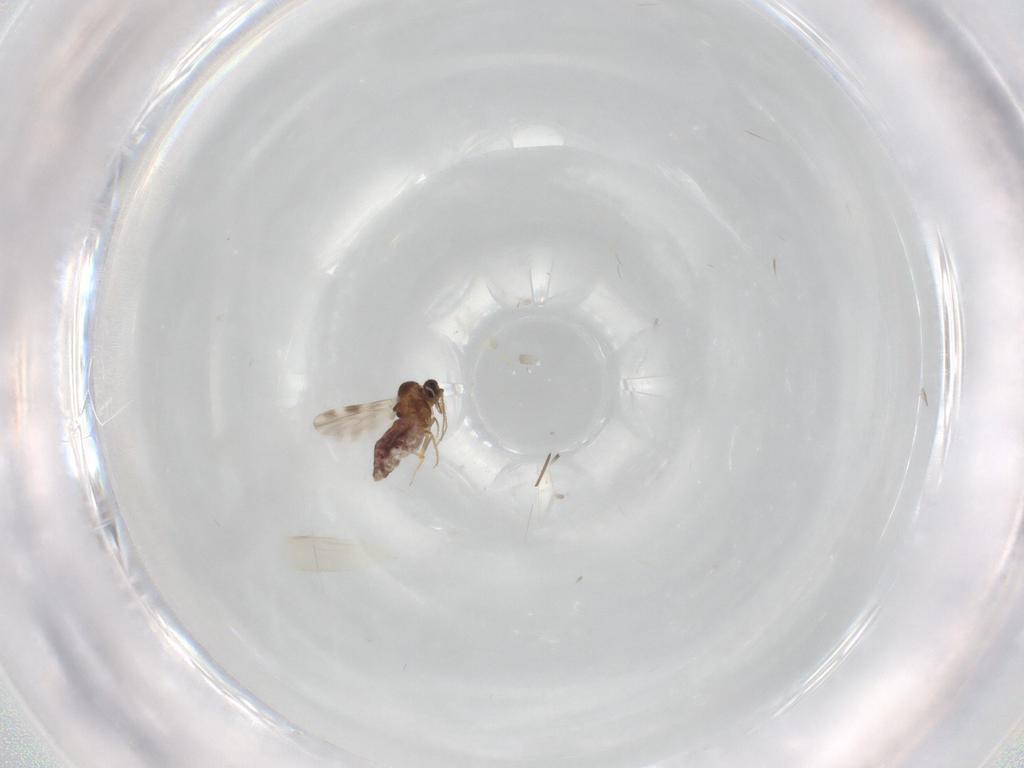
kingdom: Animalia
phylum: Arthropoda
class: Insecta
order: Diptera
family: Ceratopogonidae
